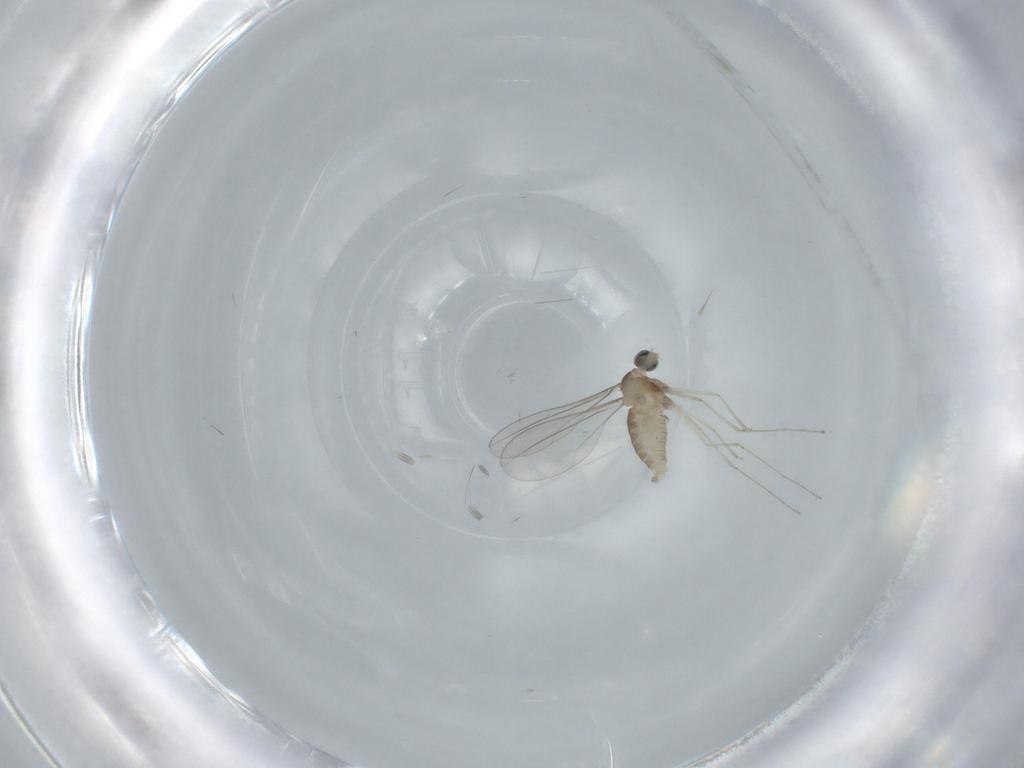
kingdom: Animalia
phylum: Arthropoda
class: Insecta
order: Diptera
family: Cecidomyiidae
